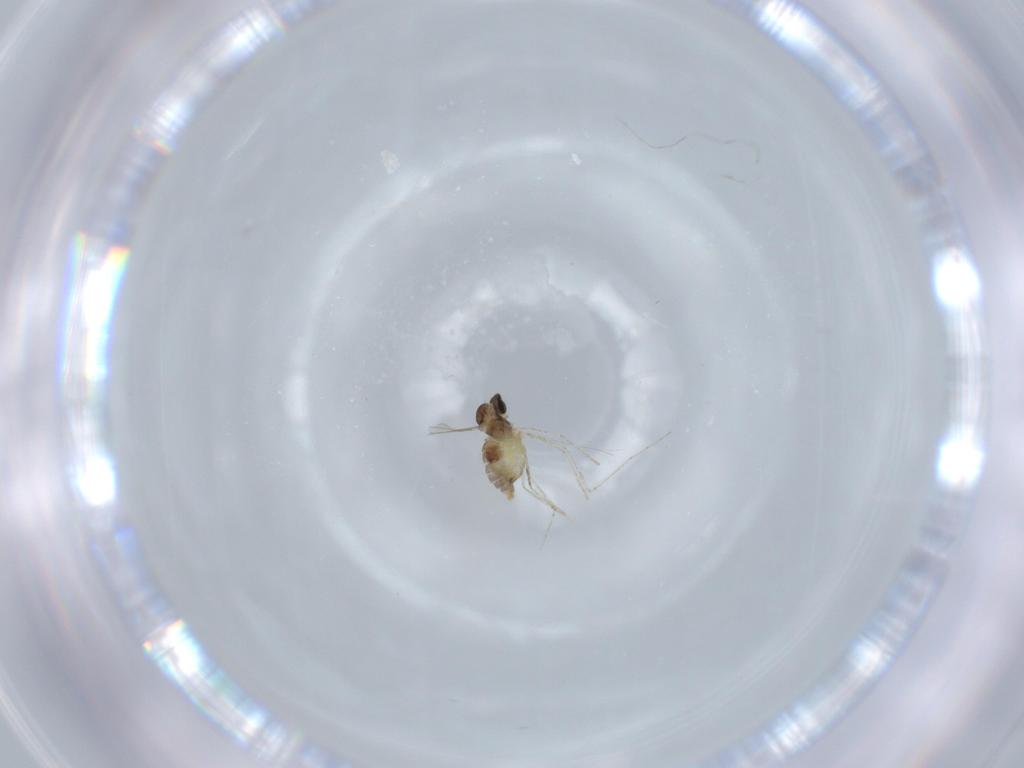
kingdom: Animalia
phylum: Arthropoda
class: Insecta
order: Diptera
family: Cecidomyiidae
